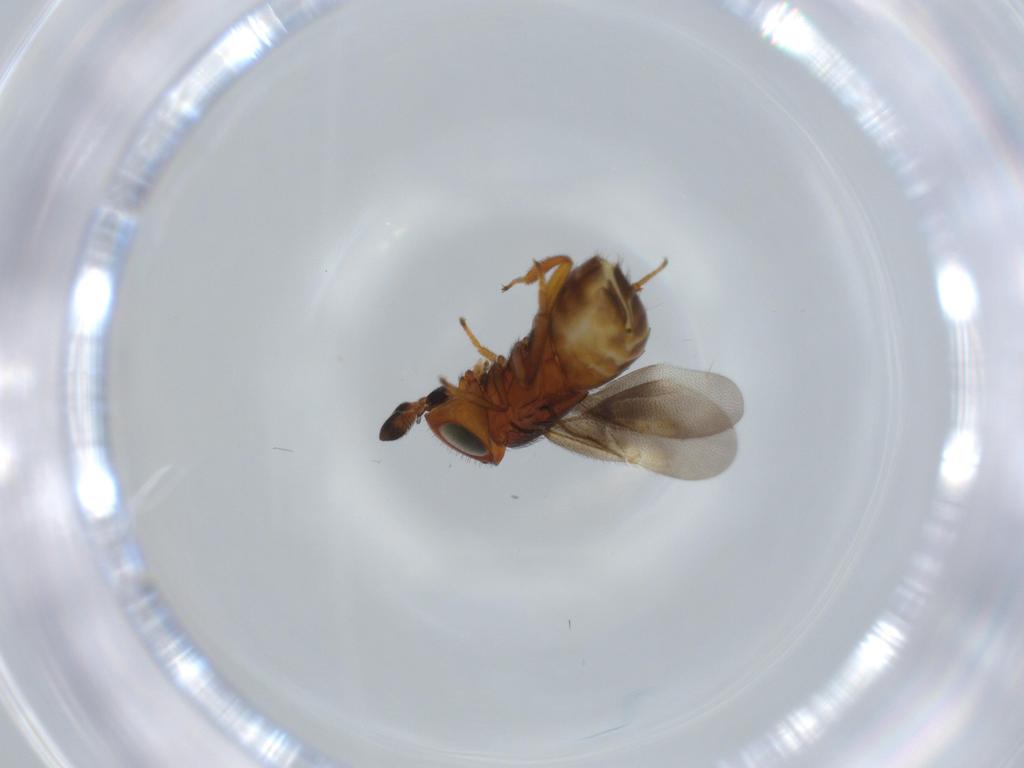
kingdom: Animalia
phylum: Arthropoda
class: Insecta
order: Hymenoptera
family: Encyrtidae
